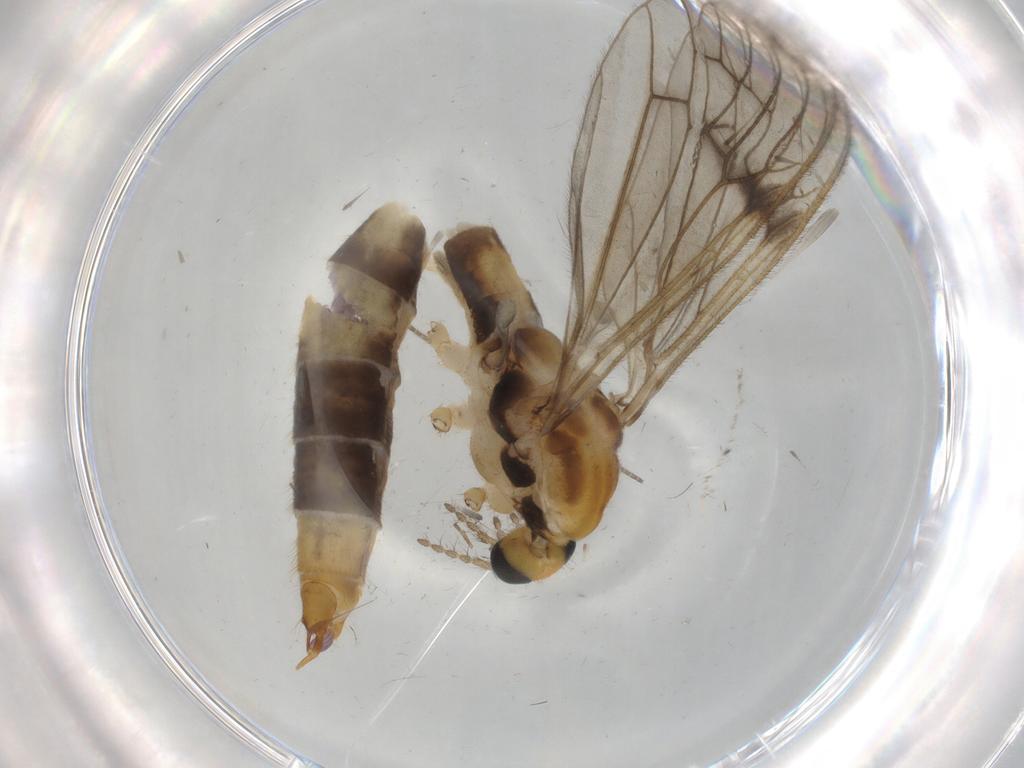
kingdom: Animalia
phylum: Arthropoda
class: Insecta
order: Diptera
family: Limoniidae
